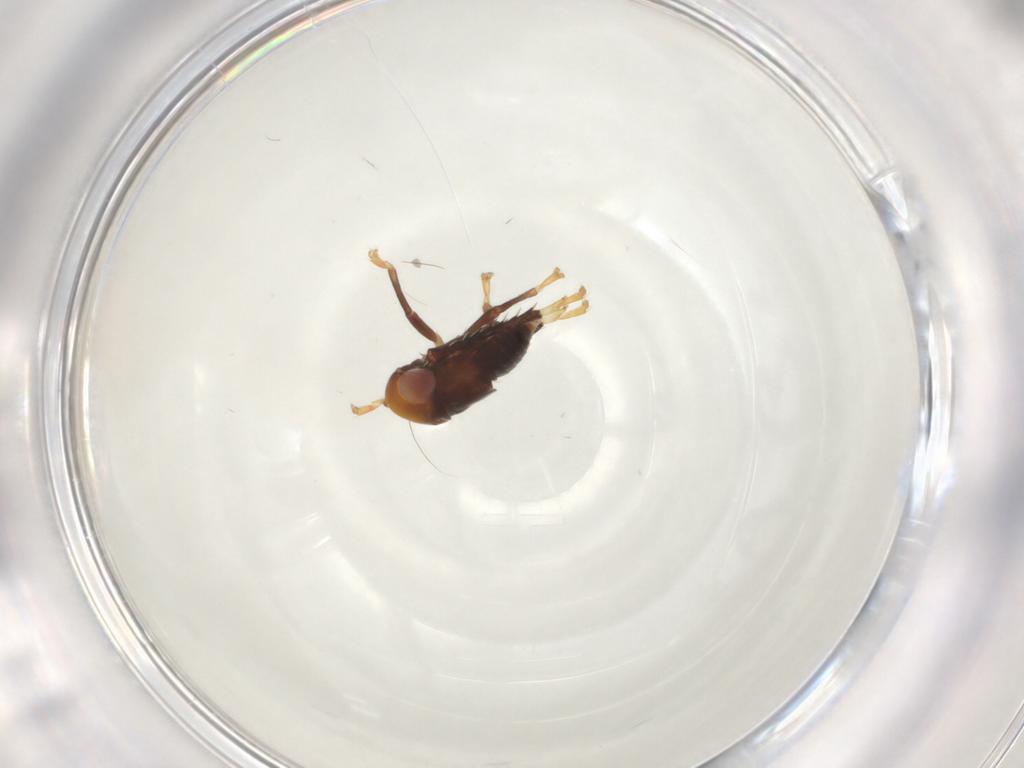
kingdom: Animalia
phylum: Arthropoda
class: Insecta
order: Hemiptera
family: Cicadellidae
